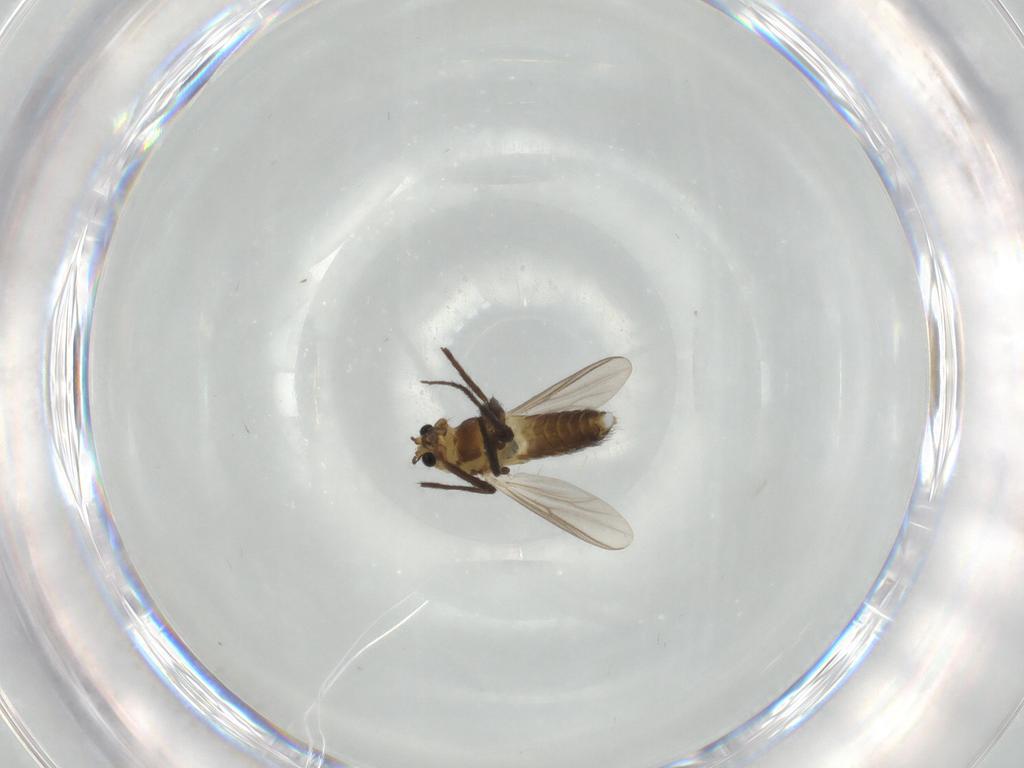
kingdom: Animalia
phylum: Arthropoda
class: Insecta
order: Diptera
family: Chironomidae
